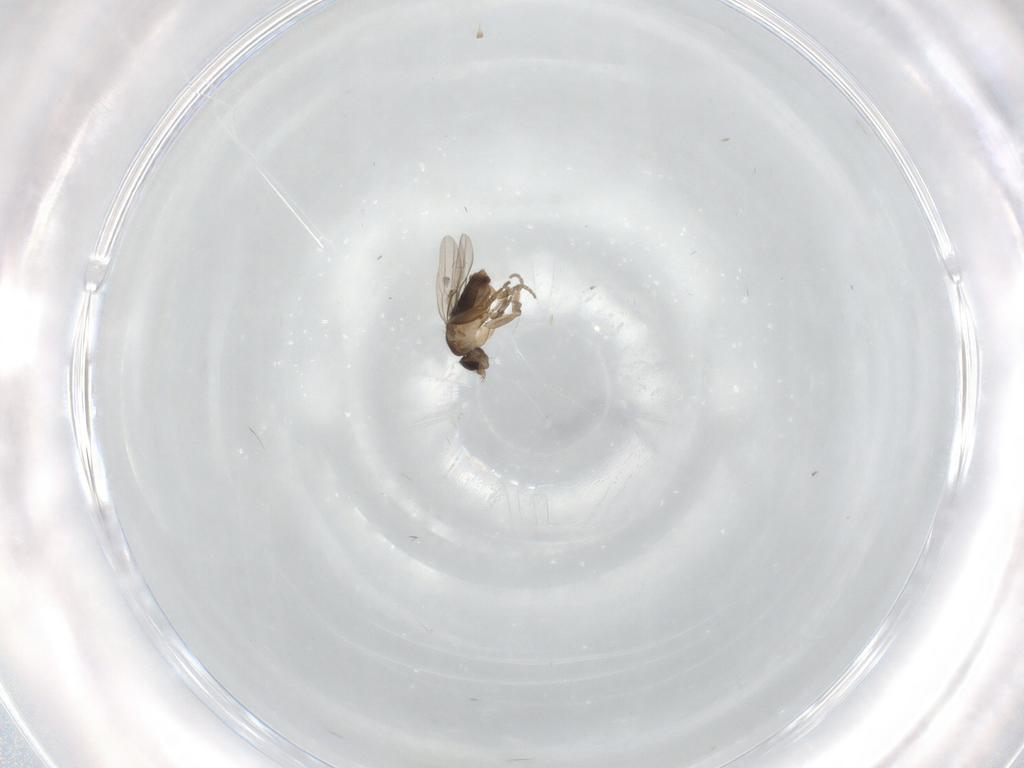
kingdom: Animalia
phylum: Arthropoda
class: Insecta
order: Diptera
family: Phoridae
